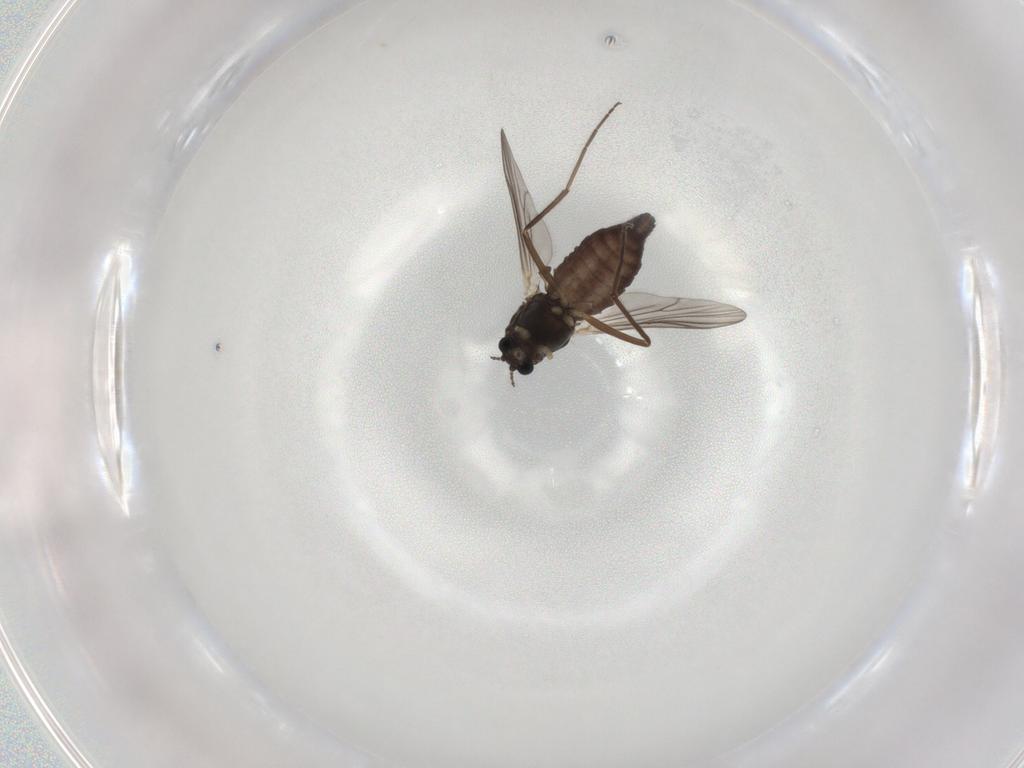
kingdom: Animalia
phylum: Arthropoda
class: Insecta
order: Diptera
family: Chironomidae
